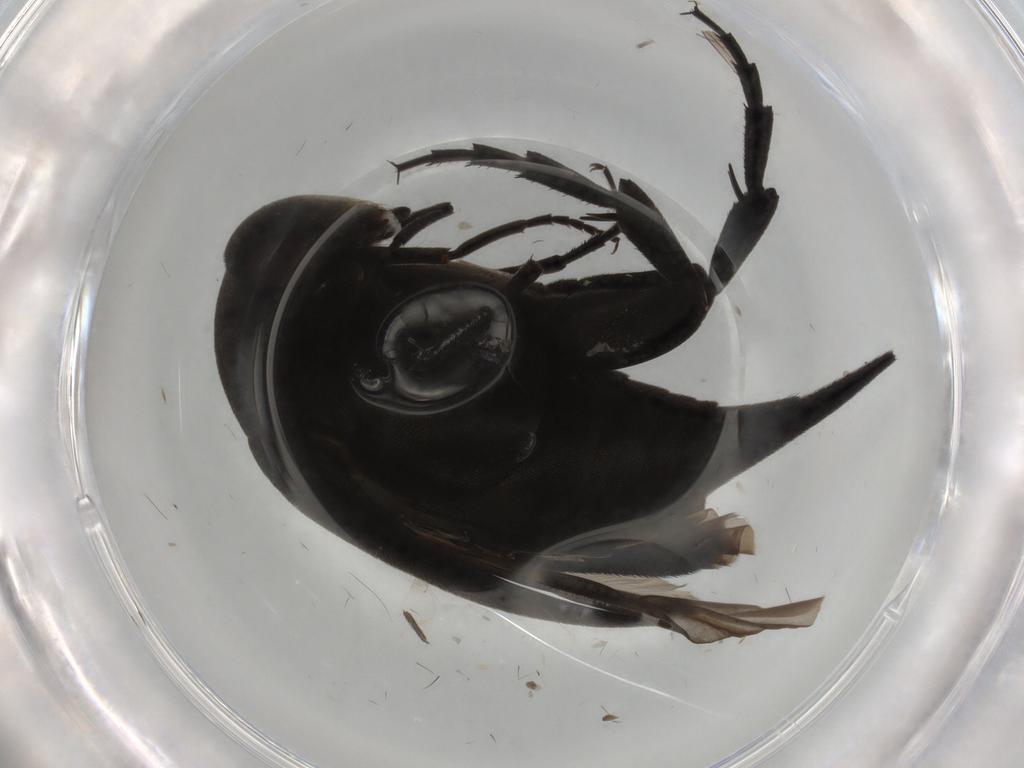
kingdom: Animalia
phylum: Arthropoda
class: Insecta
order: Coleoptera
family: Mordellidae
